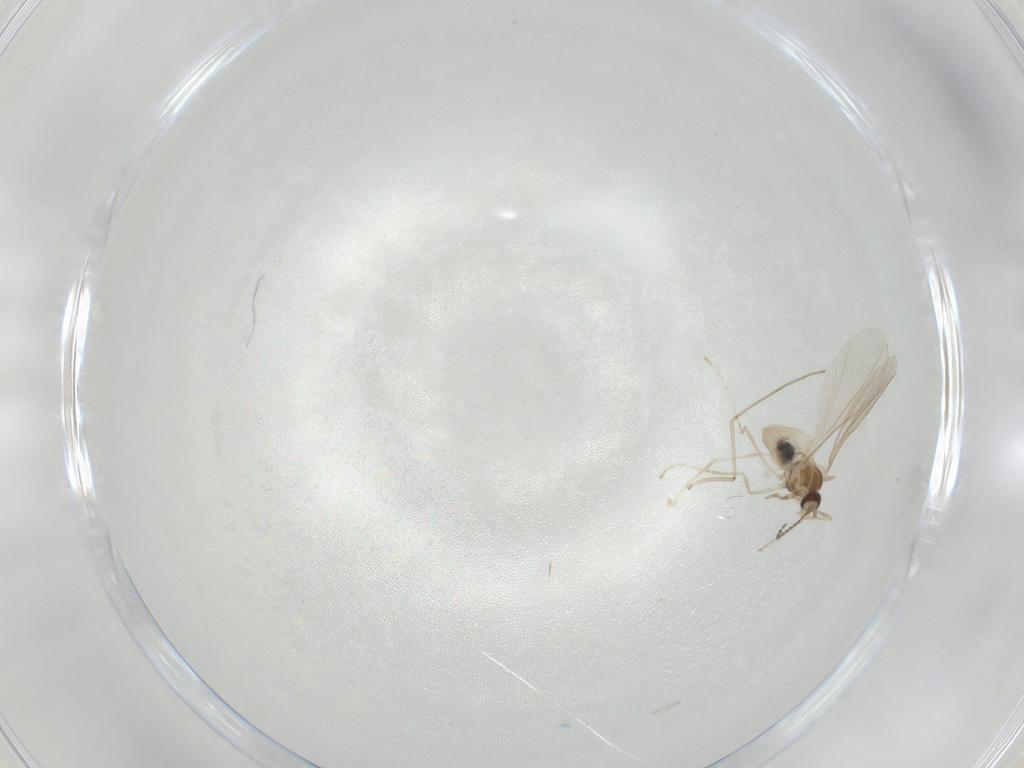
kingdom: Animalia
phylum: Arthropoda
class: Insecta
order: Diptera
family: Cecidomyiidae
